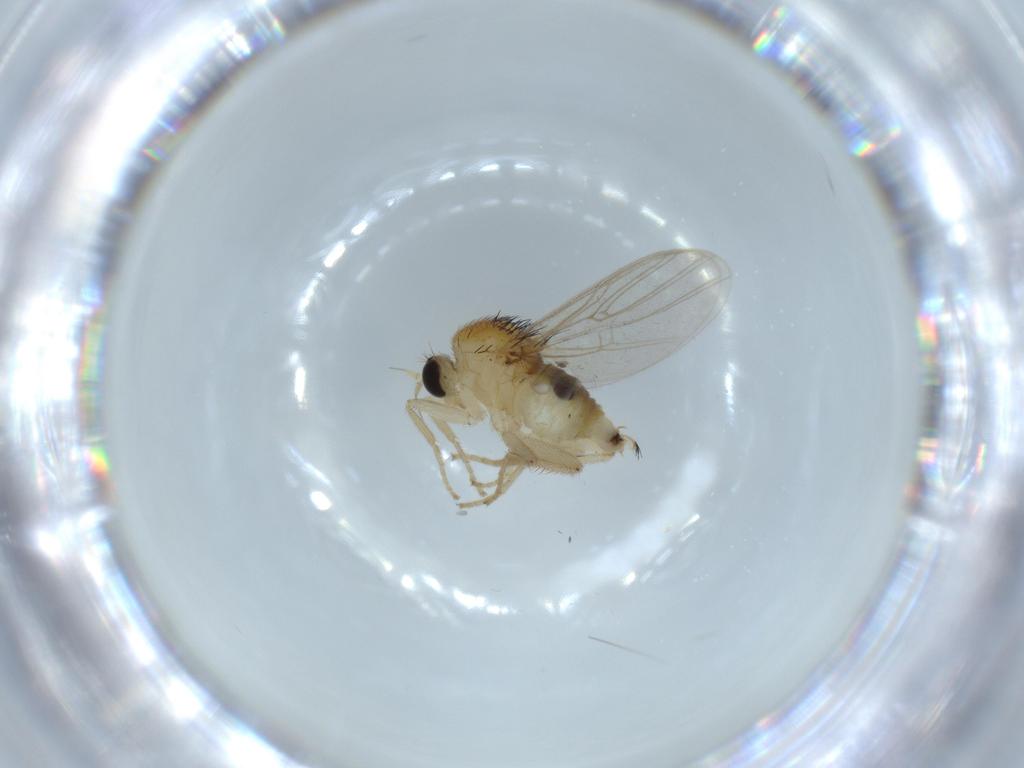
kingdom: Animalia
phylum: Arthropoda
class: Insecta
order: Diptera
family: Hybotidae
